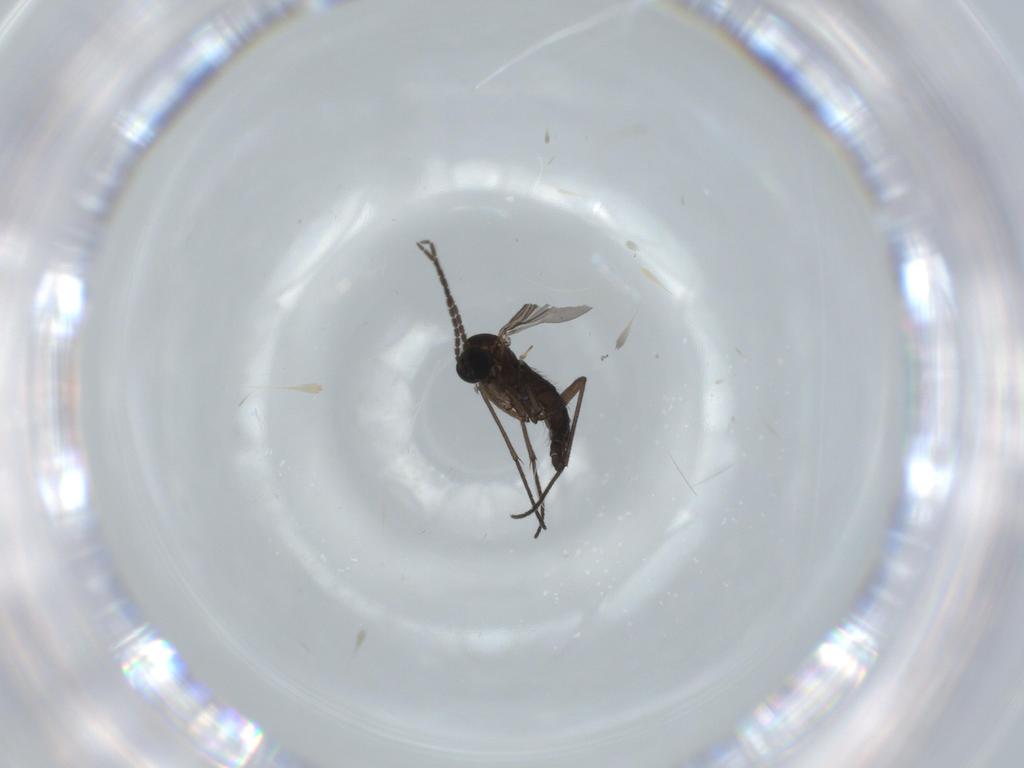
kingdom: Animalia
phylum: Arthropoda
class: Insecta
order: Diptera
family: Sciaridae
